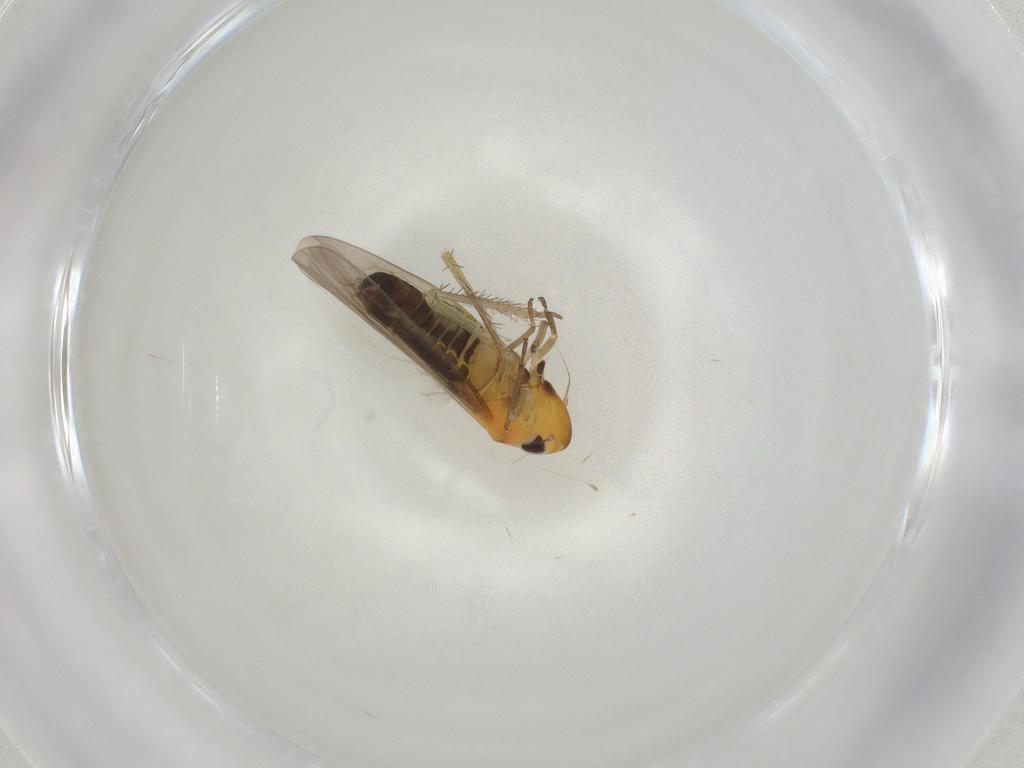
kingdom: Animalia
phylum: Arthropoda
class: Insecta
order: Hemiptera
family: Cicadellidae
